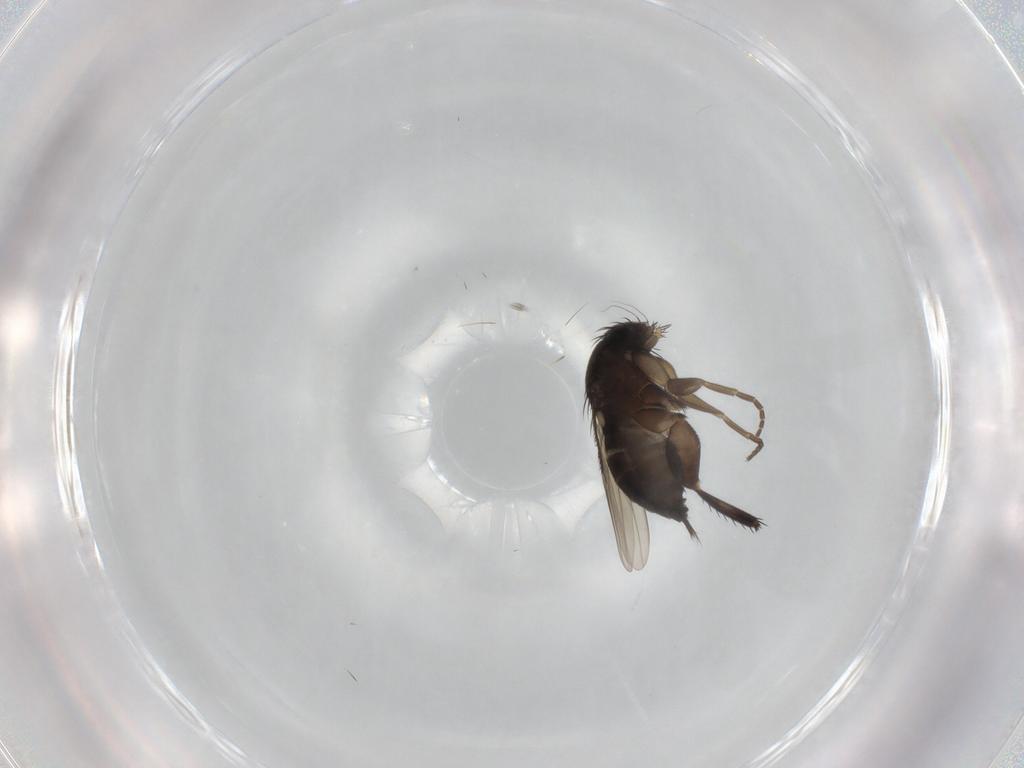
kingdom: Animalia
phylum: Arthropoda
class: Insecta
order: Diptera
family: Phoridae
